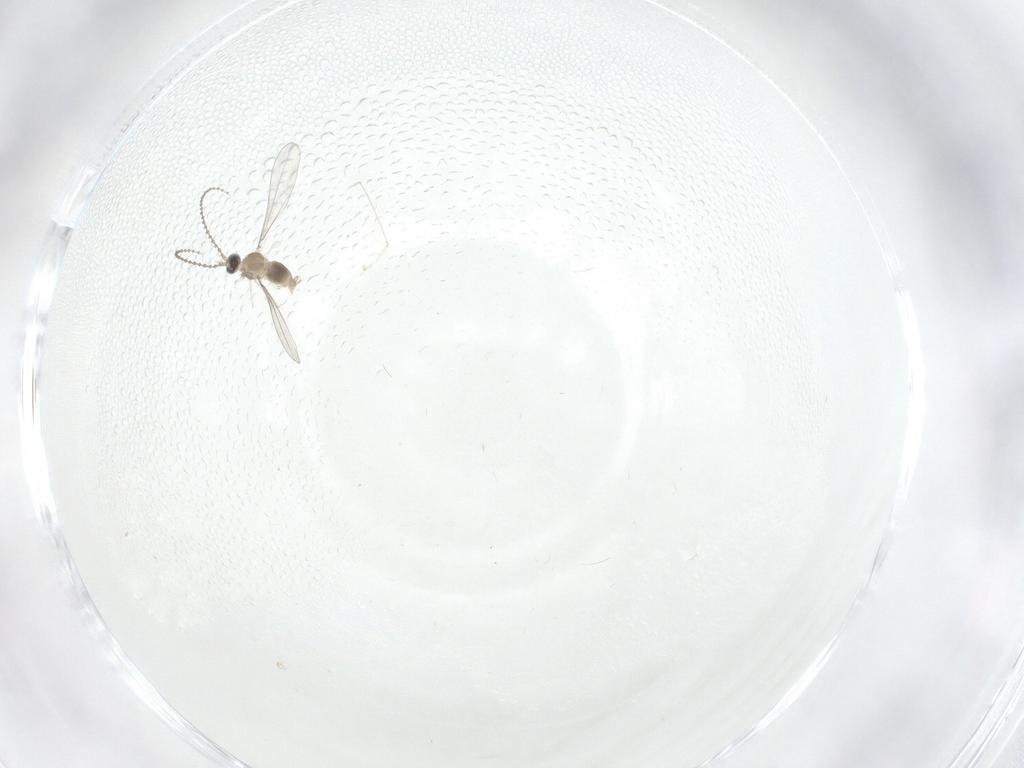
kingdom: Animalia
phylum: Arthropoda
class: Insecta
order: Diptera
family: Cecidomyiidae
